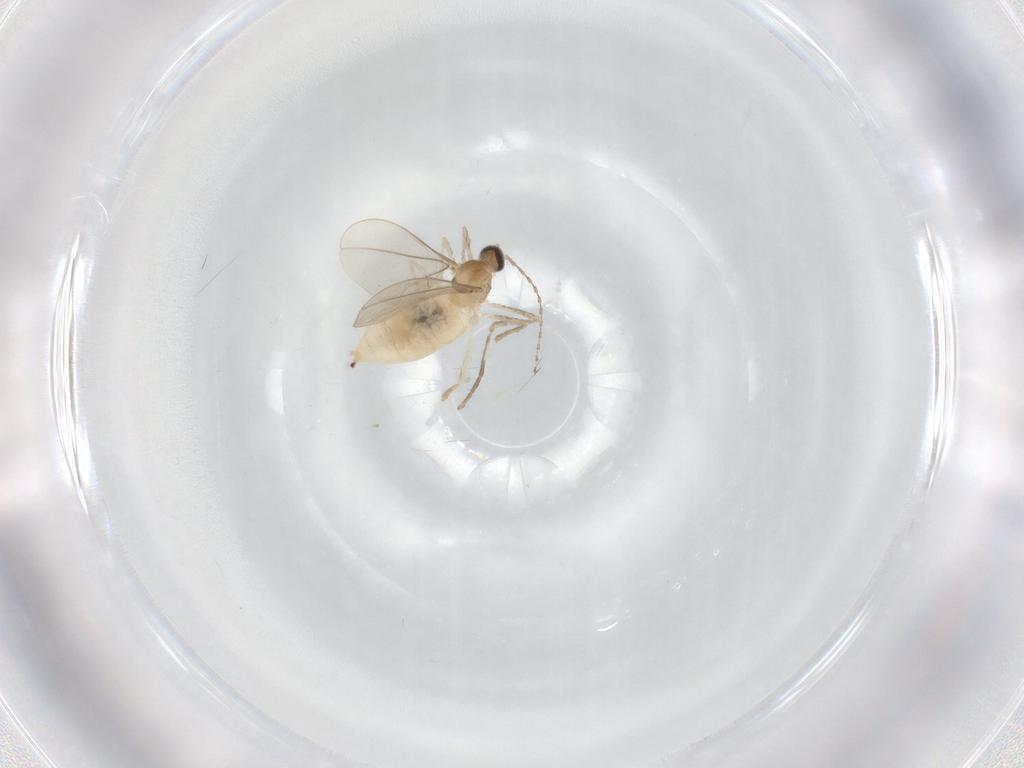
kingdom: Animalia
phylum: Arthropoda
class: Insecta
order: Diptera
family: Cecidomyiidae
